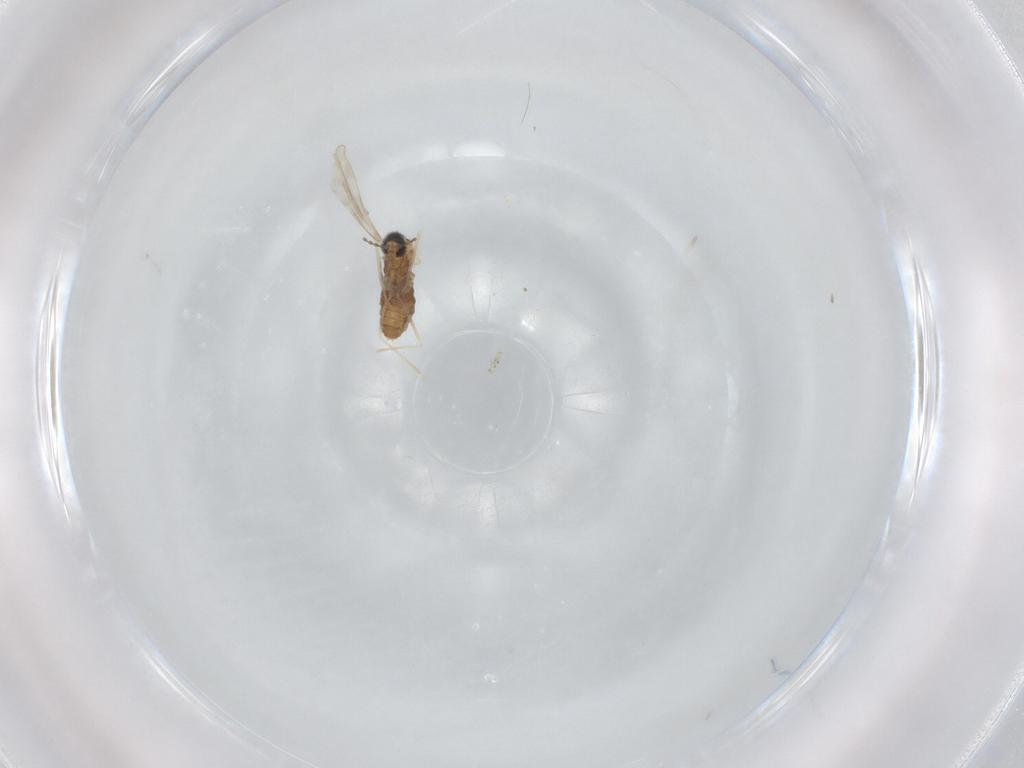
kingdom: Animalia
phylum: Arthropoda
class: Insecta
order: Diptera
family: Cecidomyiidae
